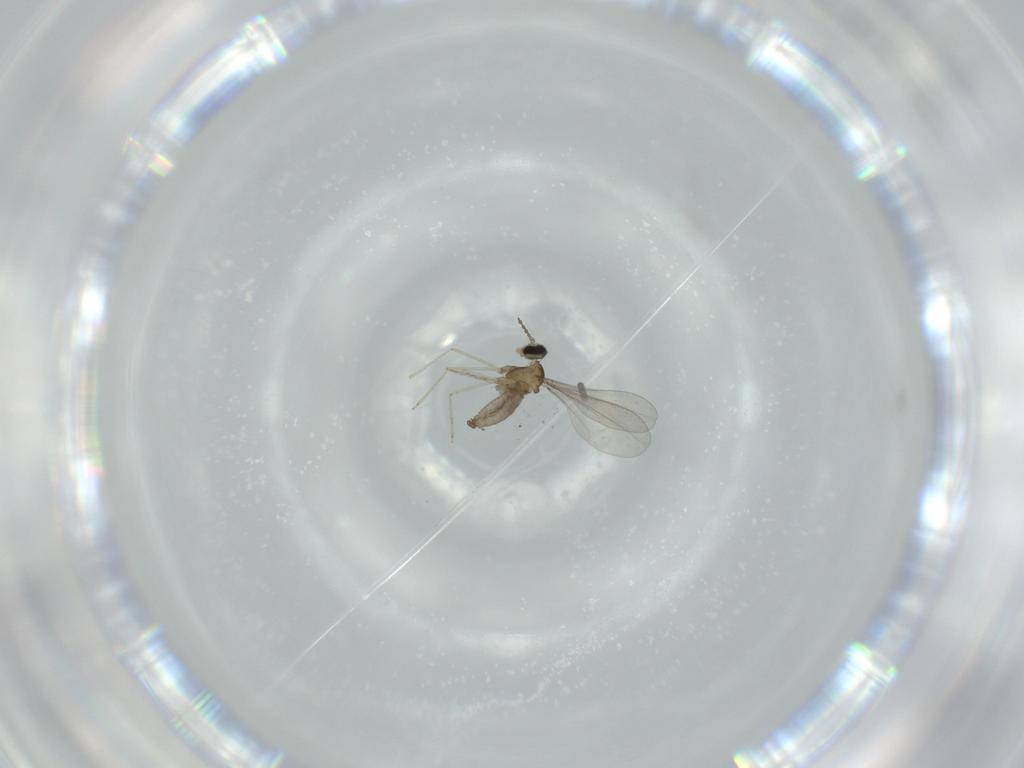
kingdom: Animalia
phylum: Arthropoda
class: Insecta
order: Diptera
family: Cecidomyiidae
